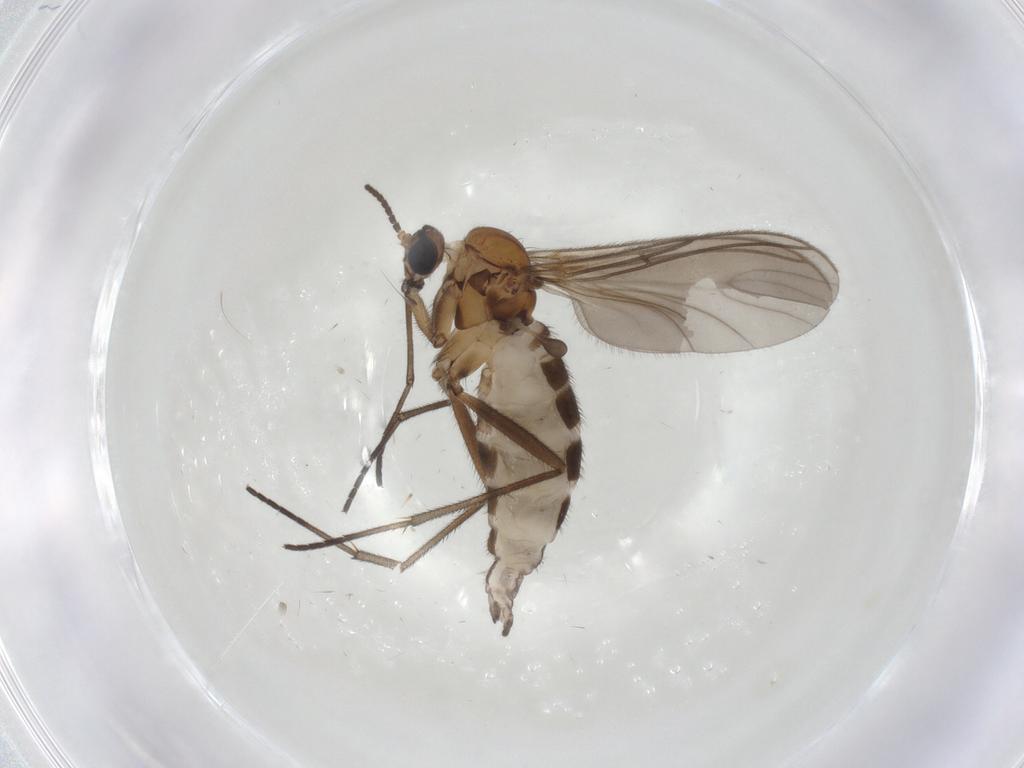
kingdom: Animalia
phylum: Arthropoda
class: Insecta
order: Diptera
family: Sciaridae
